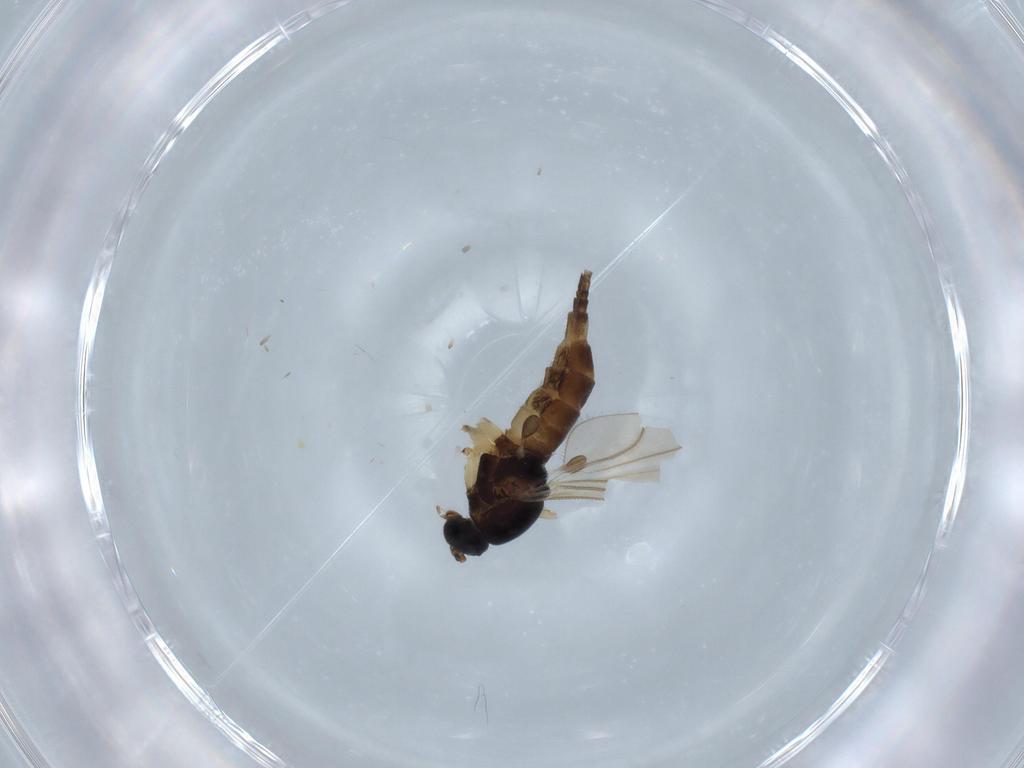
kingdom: Animalia
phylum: Arthropoda
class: Insecta
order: Diptera
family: Sciaridae
